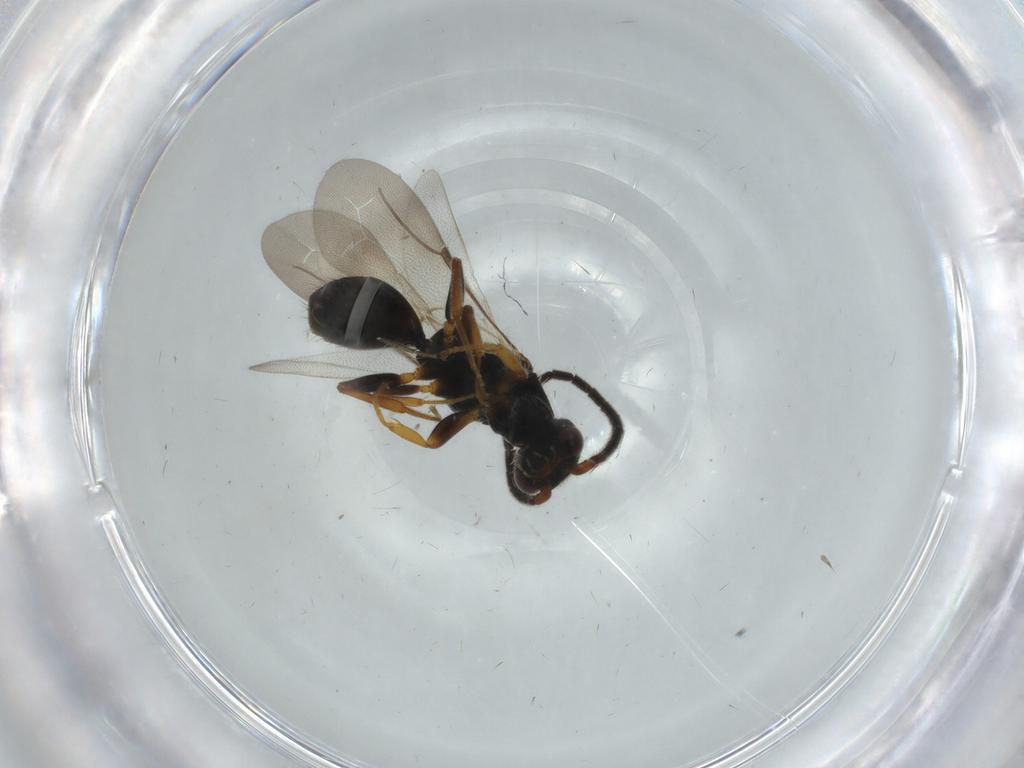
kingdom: Animalia
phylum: Arthropoda
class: Insecta
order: Hymenoptera
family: Bethylidae
